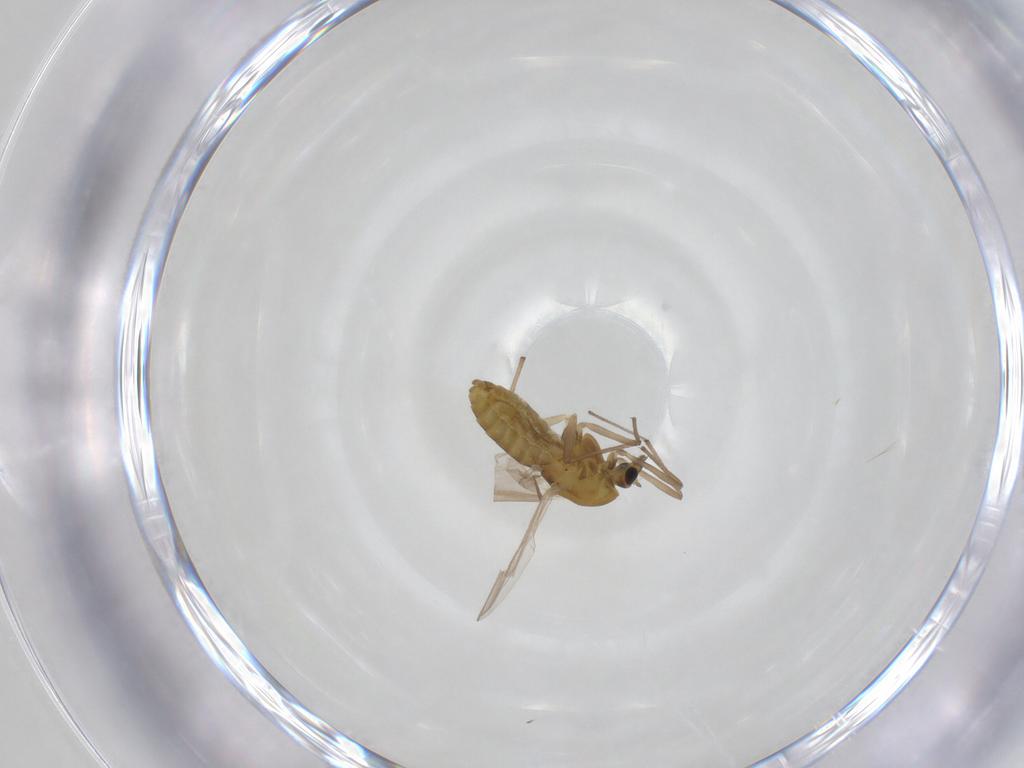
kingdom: Animalia
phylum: Arthropoda
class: Insecta
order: Diptera
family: Chironomidae
